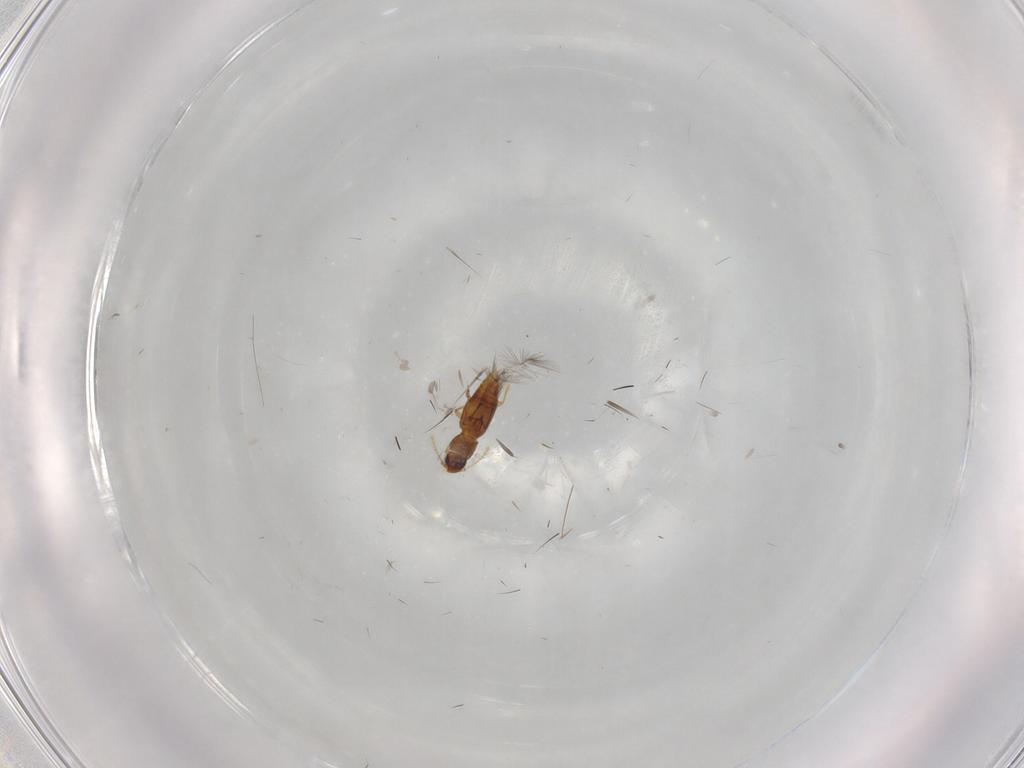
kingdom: Animalia
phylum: Arthropoda
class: Insecta
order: Coleoptera
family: Ptiliidae
